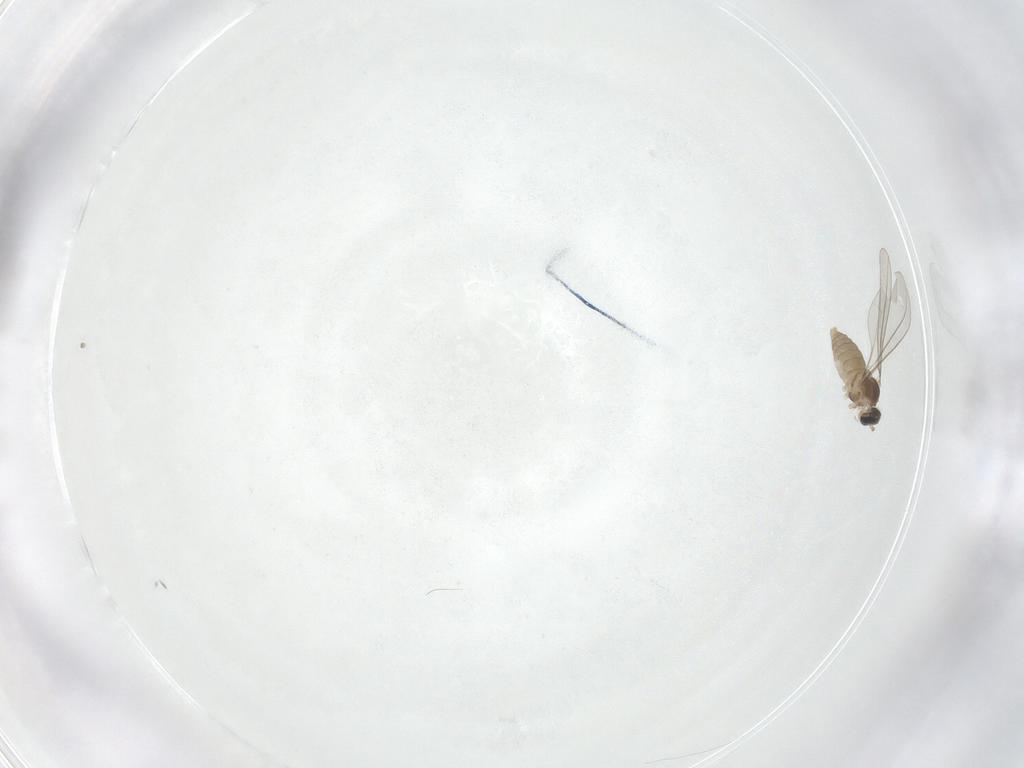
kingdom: Animalia
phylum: Arthropoda
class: Insecta
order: Diptera
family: Cecidomyiidae
